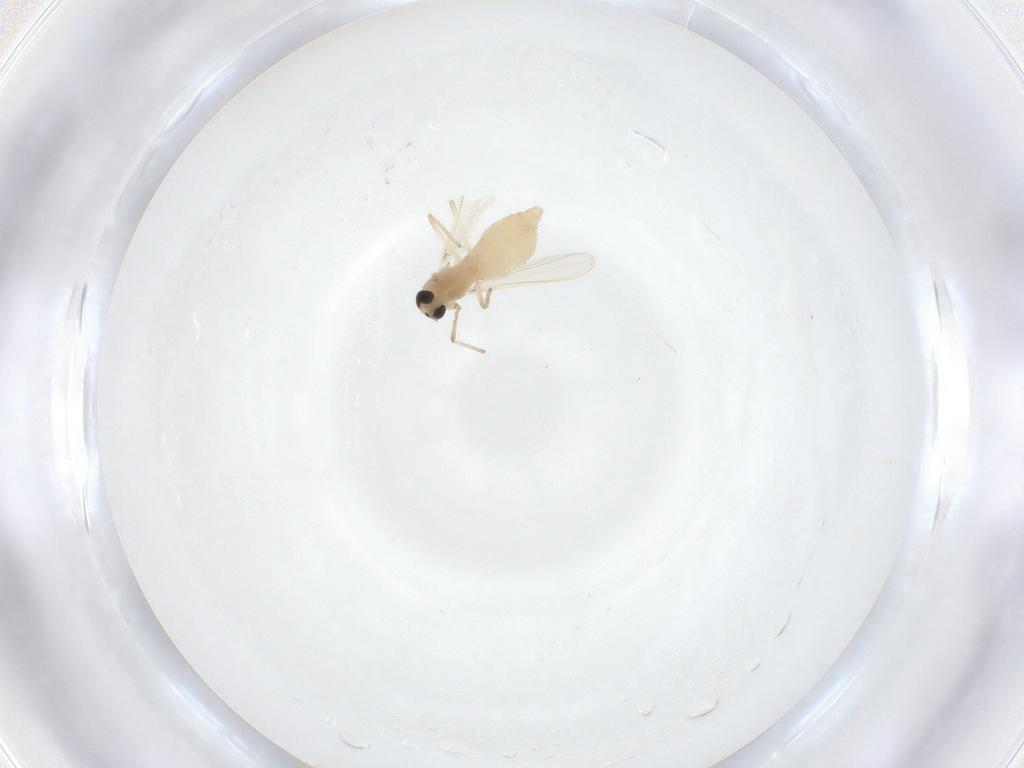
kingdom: Animalia
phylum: Arthropoda
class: Insecta
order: Diptera
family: Chironomidae
